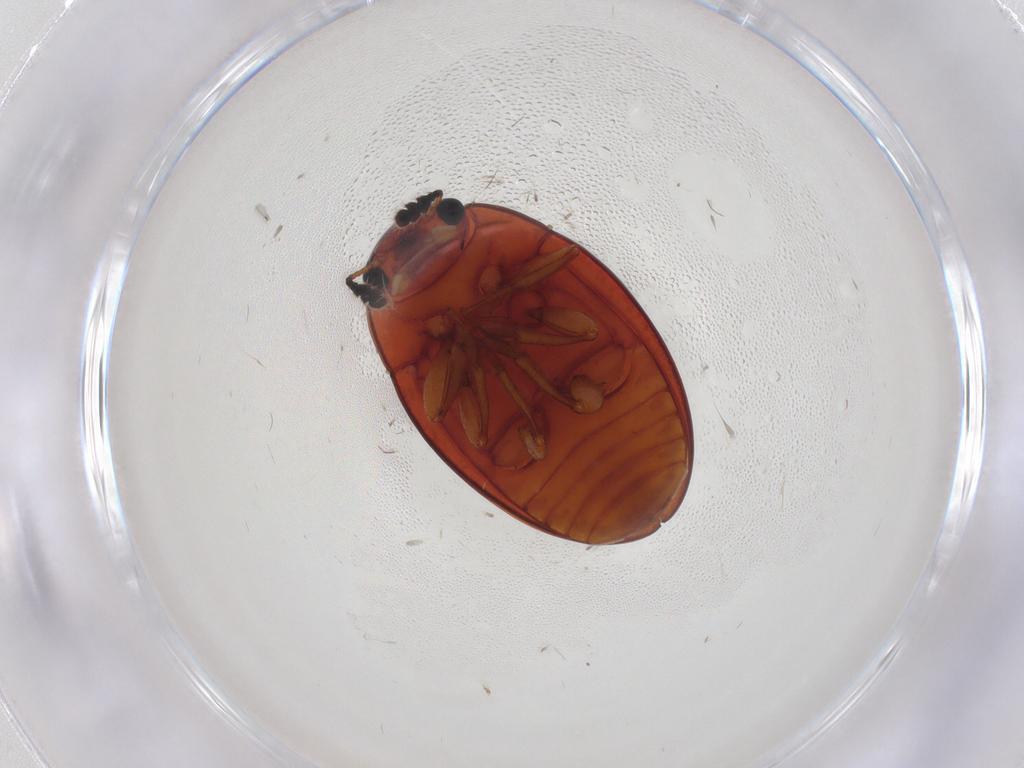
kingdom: Animalia
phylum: Arthropoda
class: Insecta
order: Coleoptera
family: Erotylidae
